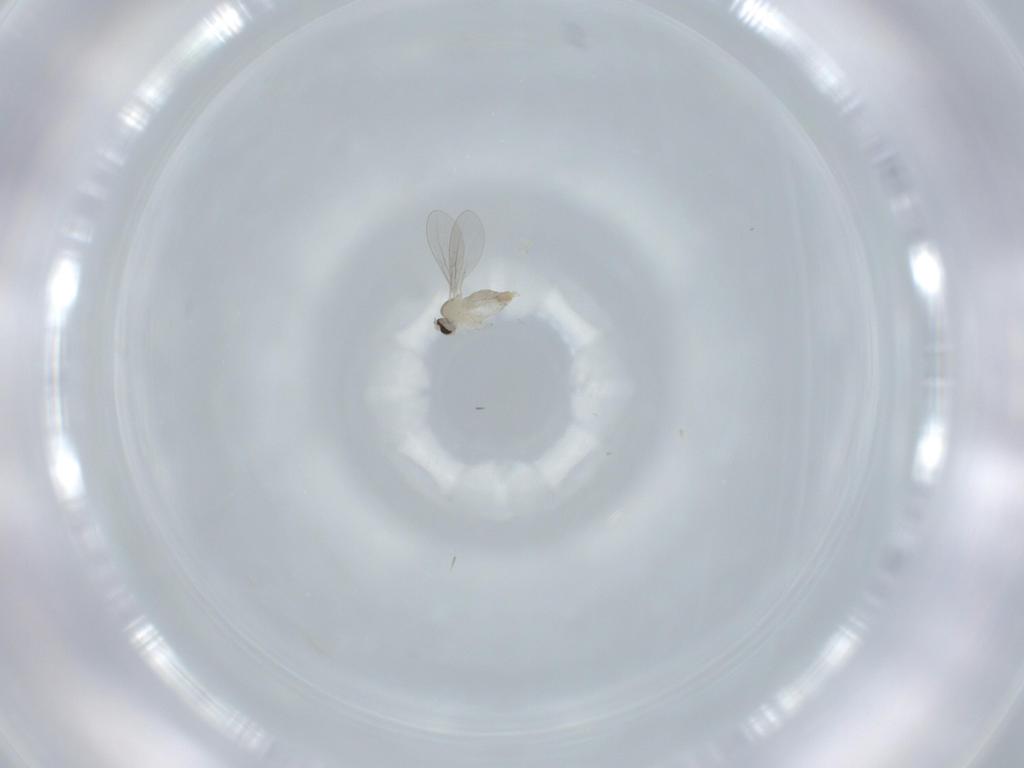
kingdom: Animalia
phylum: Arthropoda
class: Insecta
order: Diptera
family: Cecidomyiidae
